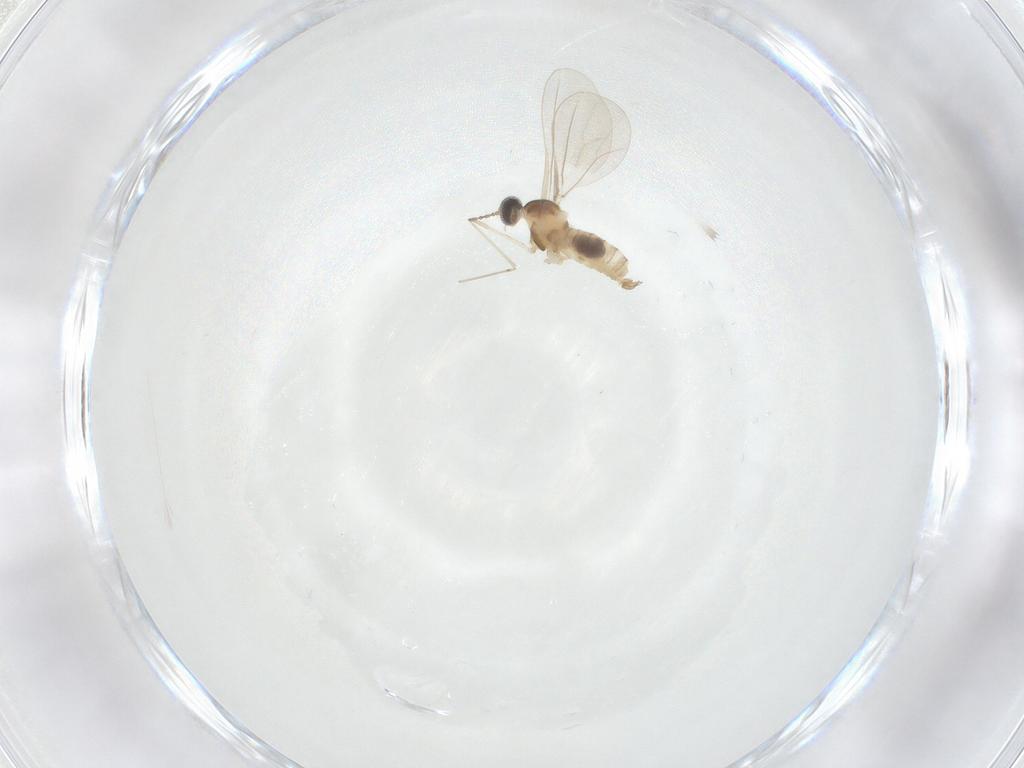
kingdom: Animalia
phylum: Arthropoda
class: Insecta
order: Diptera
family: Cecidomyiidae
